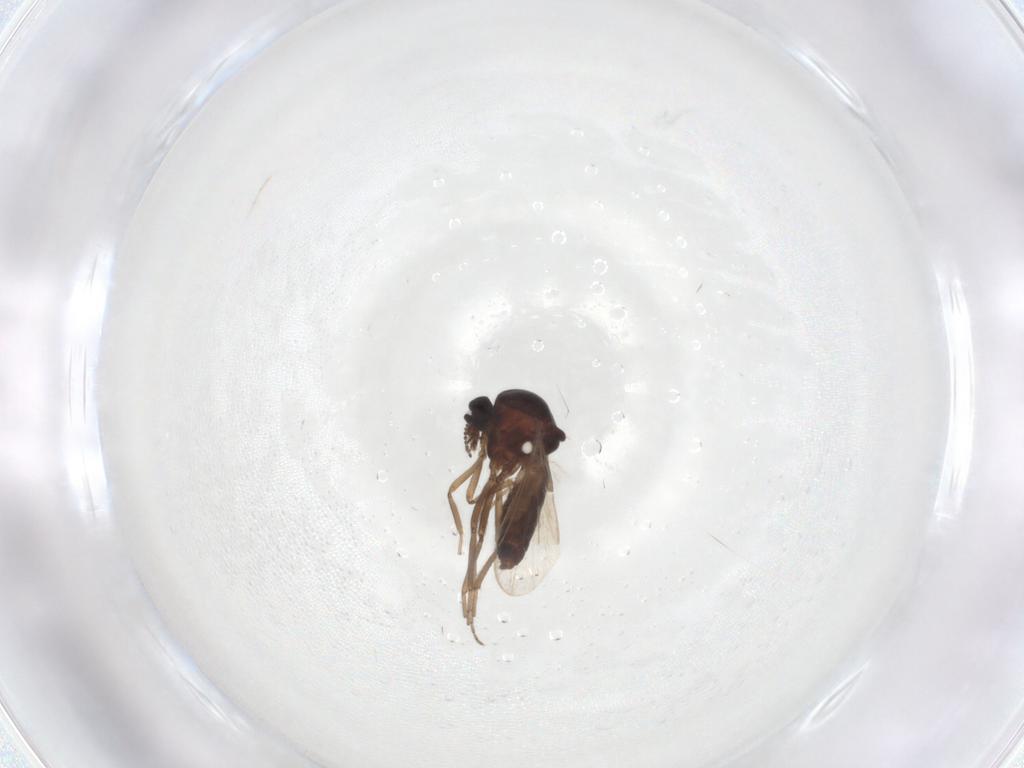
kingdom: Animalia
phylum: Arthropoda
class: Insecta
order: Diptera
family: Ceratopogonidae
